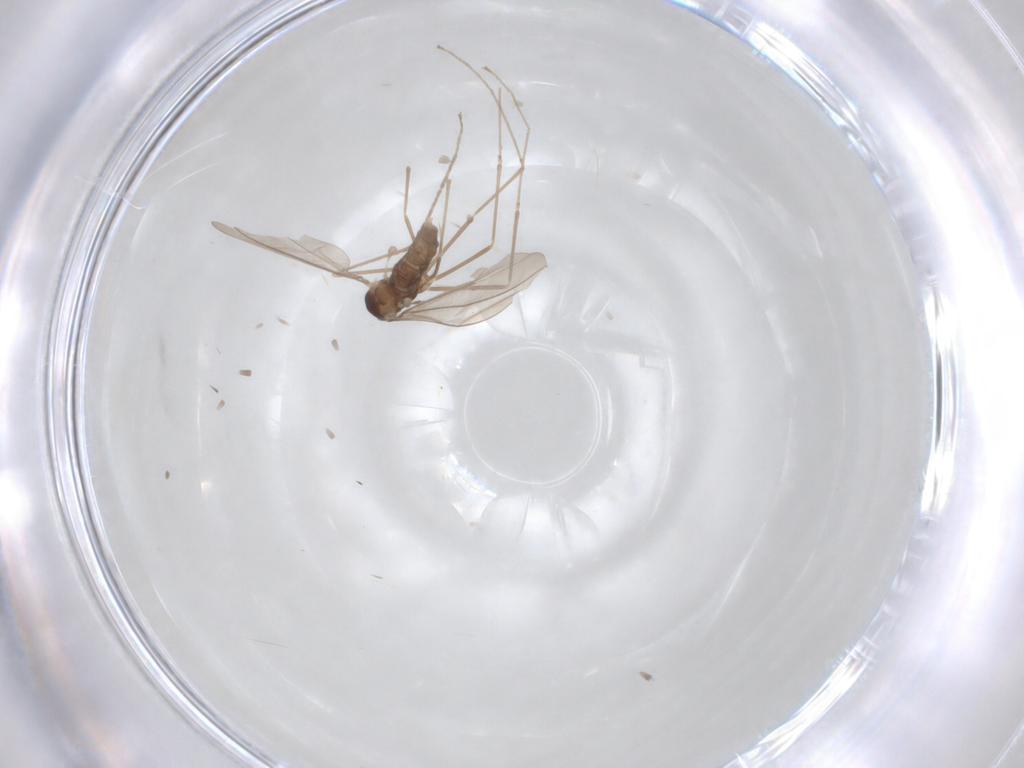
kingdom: Animalia
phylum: Arthropoda
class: Insecta
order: Diptera
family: Cecidomyiidae
